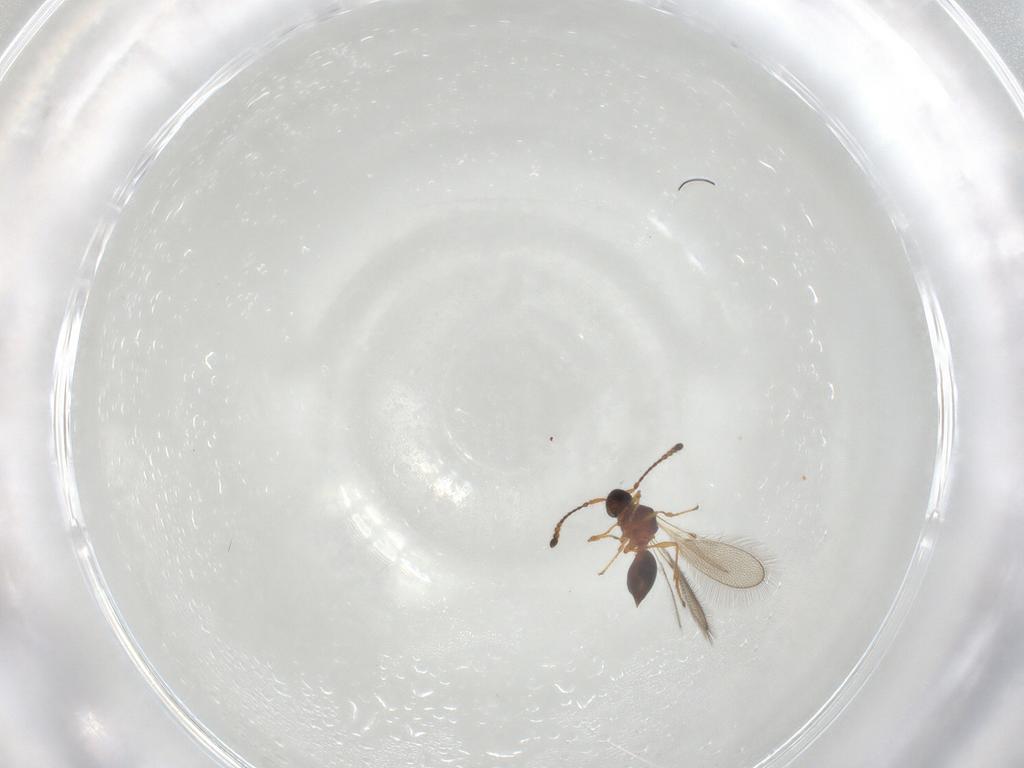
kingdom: Animalia
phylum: Arthropoda
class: Insecta
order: Hymenoptera
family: Diapriidae
